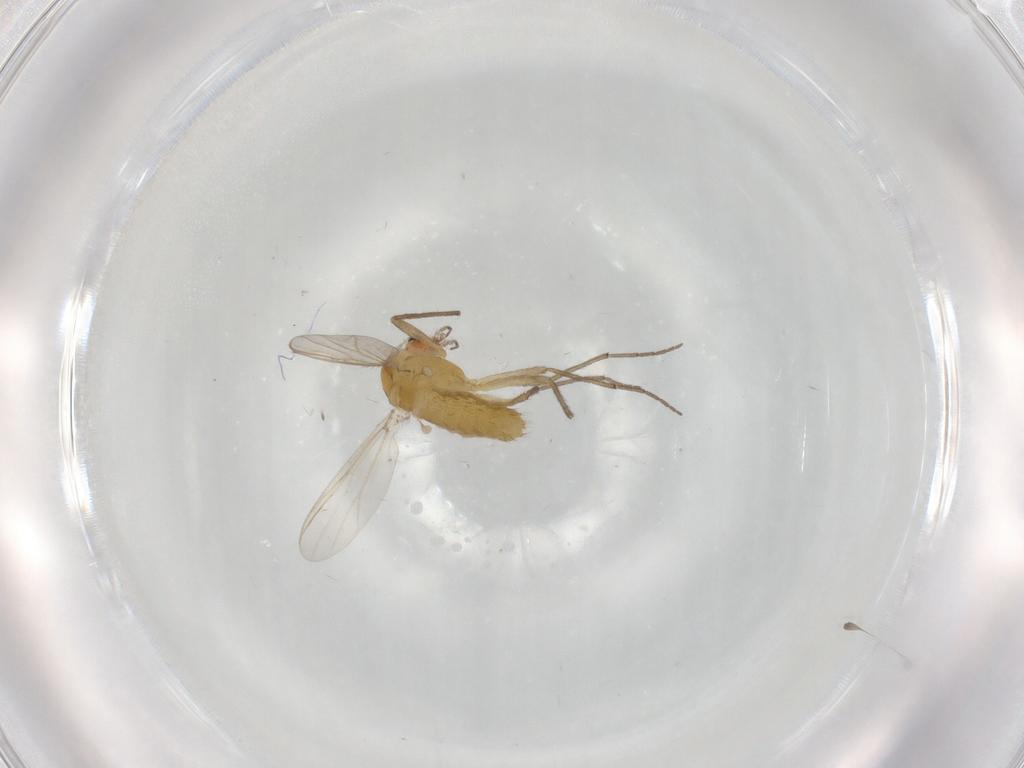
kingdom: Animalia
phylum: Arthropoda
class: Insecta
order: Diptera
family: Chironomidae
